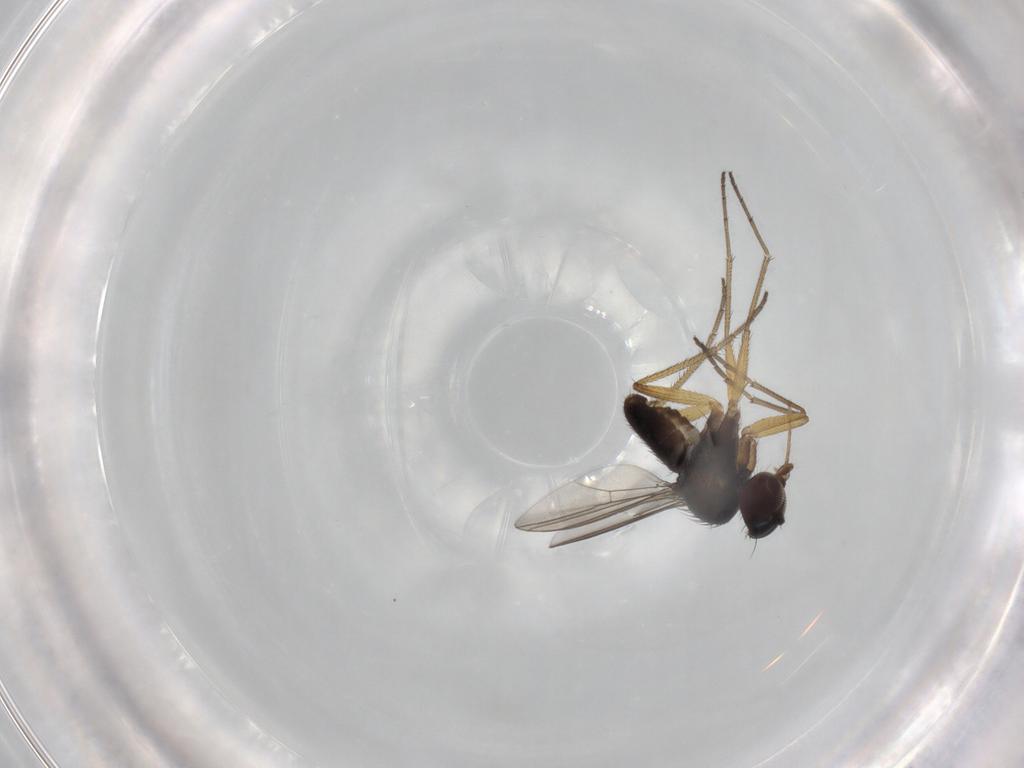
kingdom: Animalia
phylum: Arthropoda
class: Insecta
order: Diptera
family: Dolichopodidae
